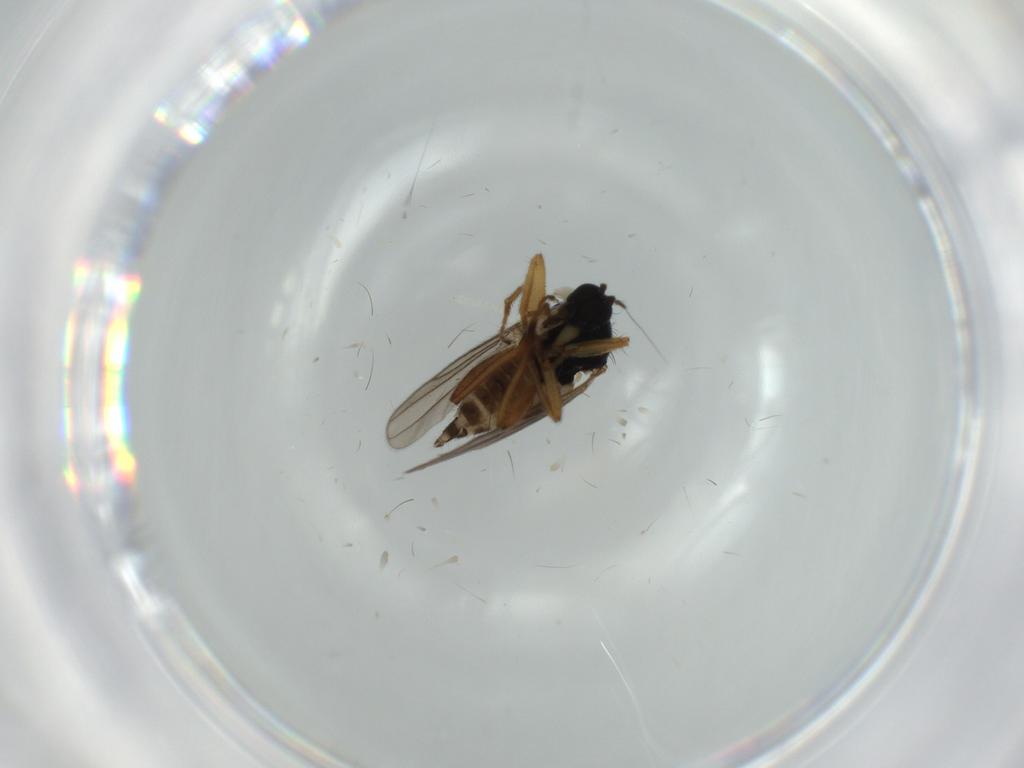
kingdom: Animalia
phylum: Arthropoda
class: Insecta
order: Diptera
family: Hybotidae
